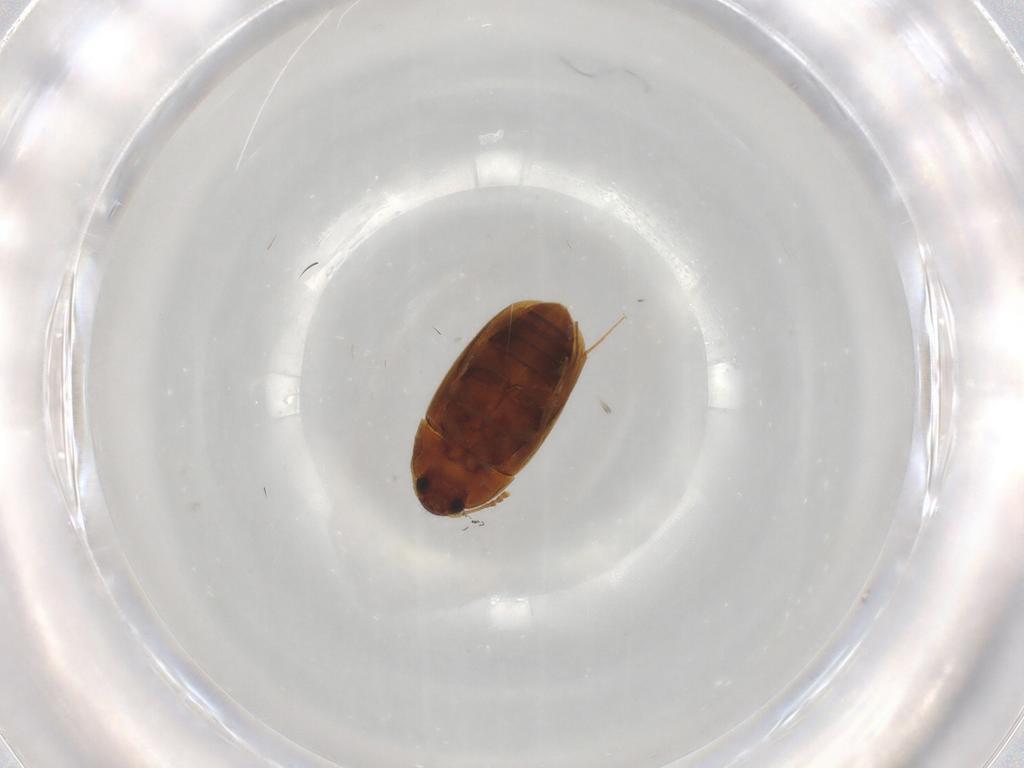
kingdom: Animalia
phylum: Arthropoda
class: Insecta
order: Coleoptera
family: Mycetophagidae
